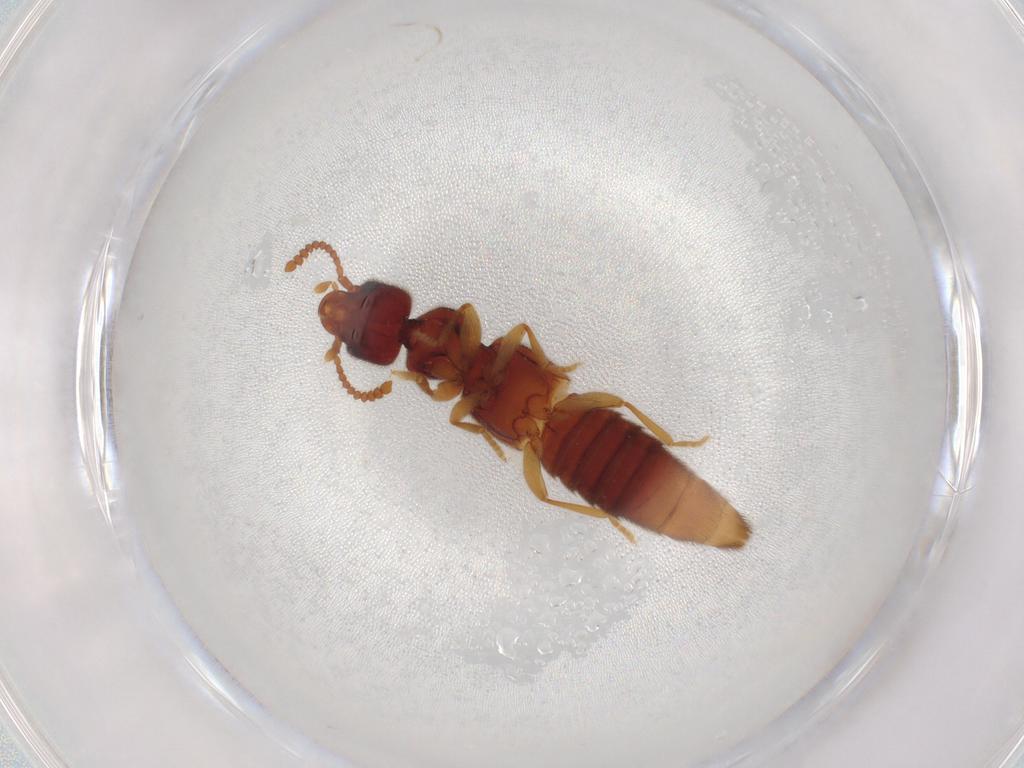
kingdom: Animalia
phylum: Arthropoda
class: Insecta
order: Coleoptera
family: Staphylinidae
